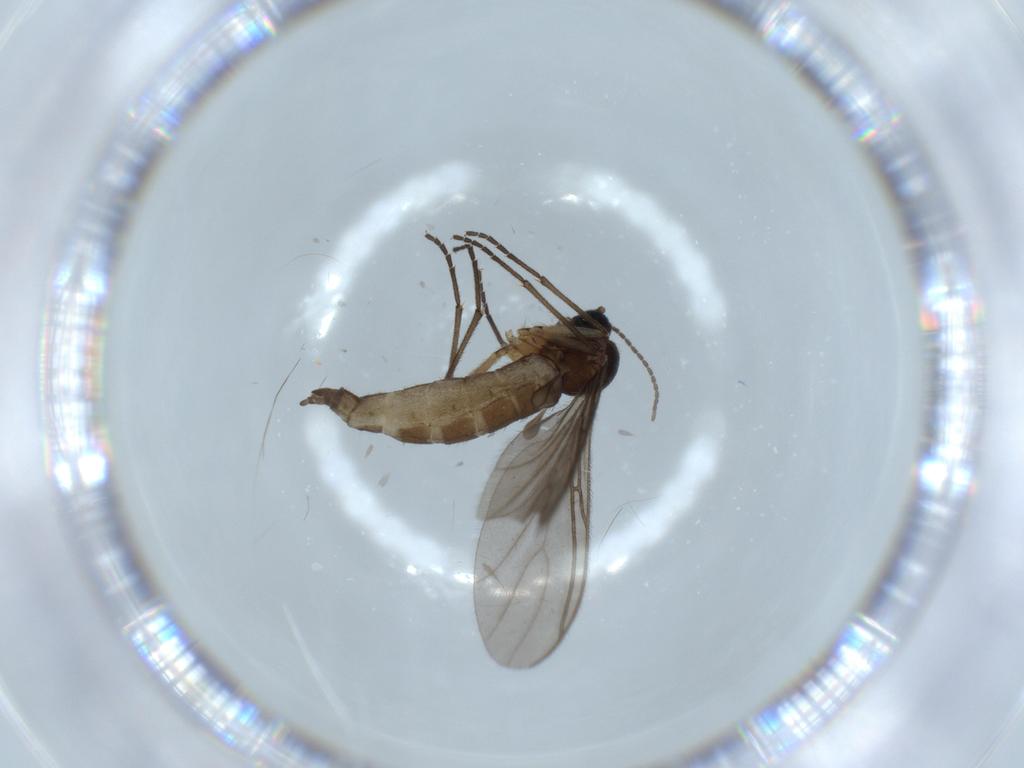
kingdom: Animalia
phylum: Arthropoda
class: Insecta
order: Diptera
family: Sciaridae
